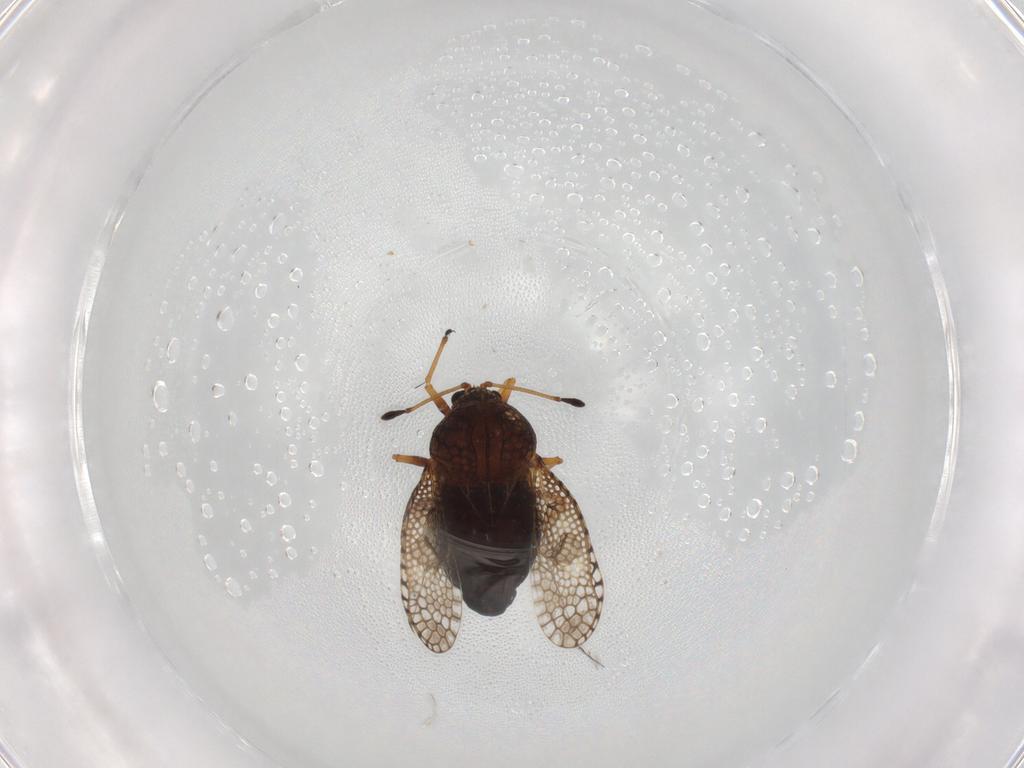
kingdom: Animalia
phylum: Arthropoda
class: Insecta
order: Hemiptera
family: Tingidae
